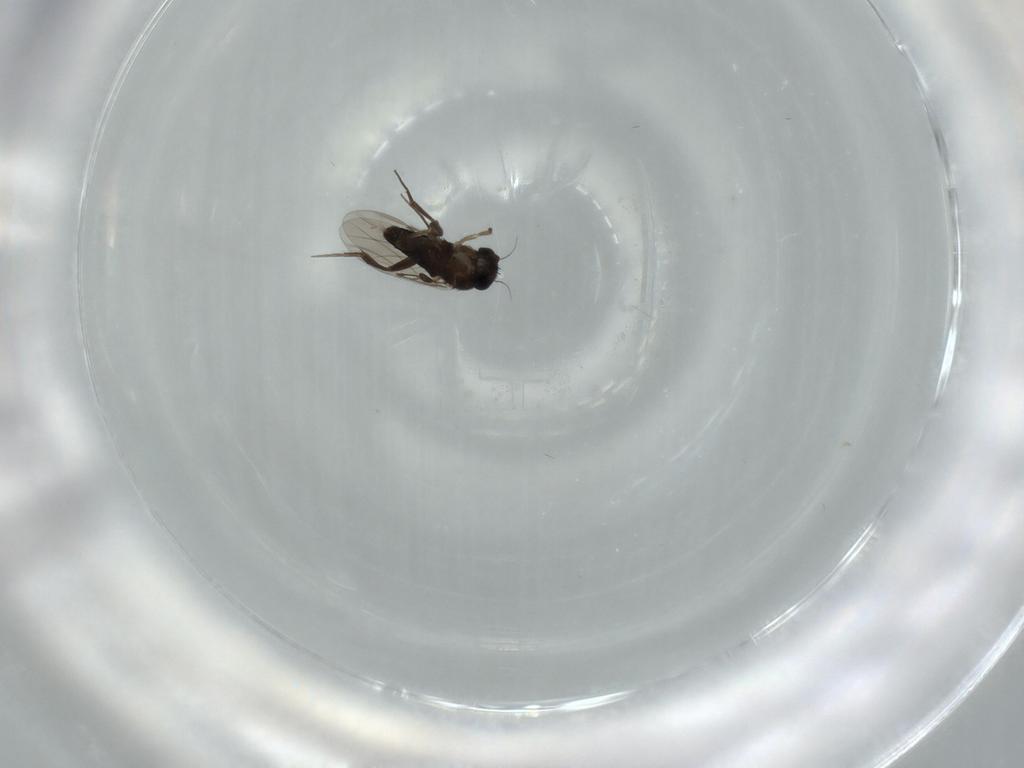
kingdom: Animalia
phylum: Arthropoda
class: Insecta
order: Diptera
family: Phoridae
